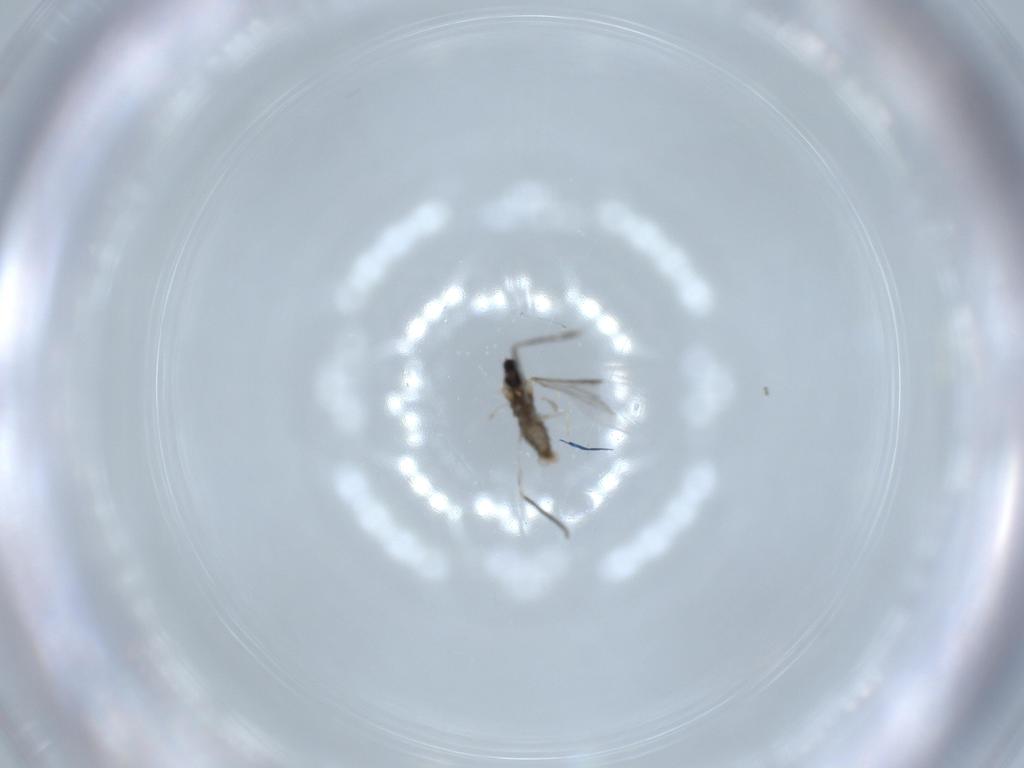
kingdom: Animalia
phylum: Arthropoda
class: Insecta
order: Diptera
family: Cecidomyiidae
